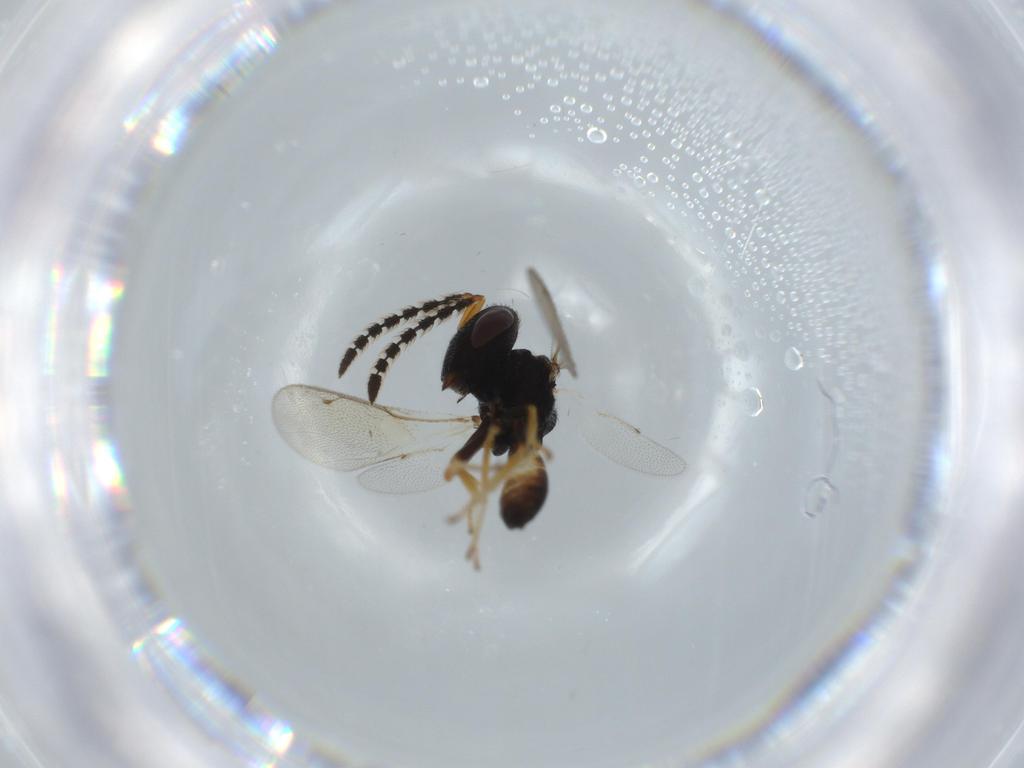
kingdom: Animalia
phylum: Arthropoda
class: Insecta
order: Hymenoptera
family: Pteromalidae
